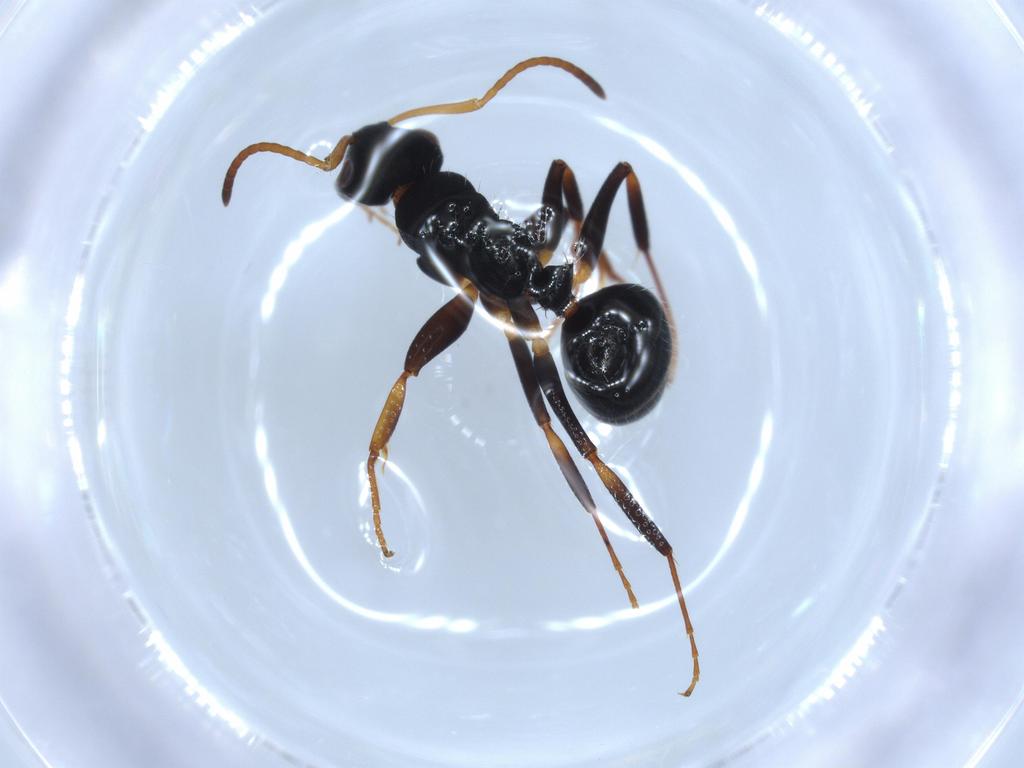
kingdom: Animalia
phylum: Arthropoda
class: Insecta
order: Hymenoptera
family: Formicidae
